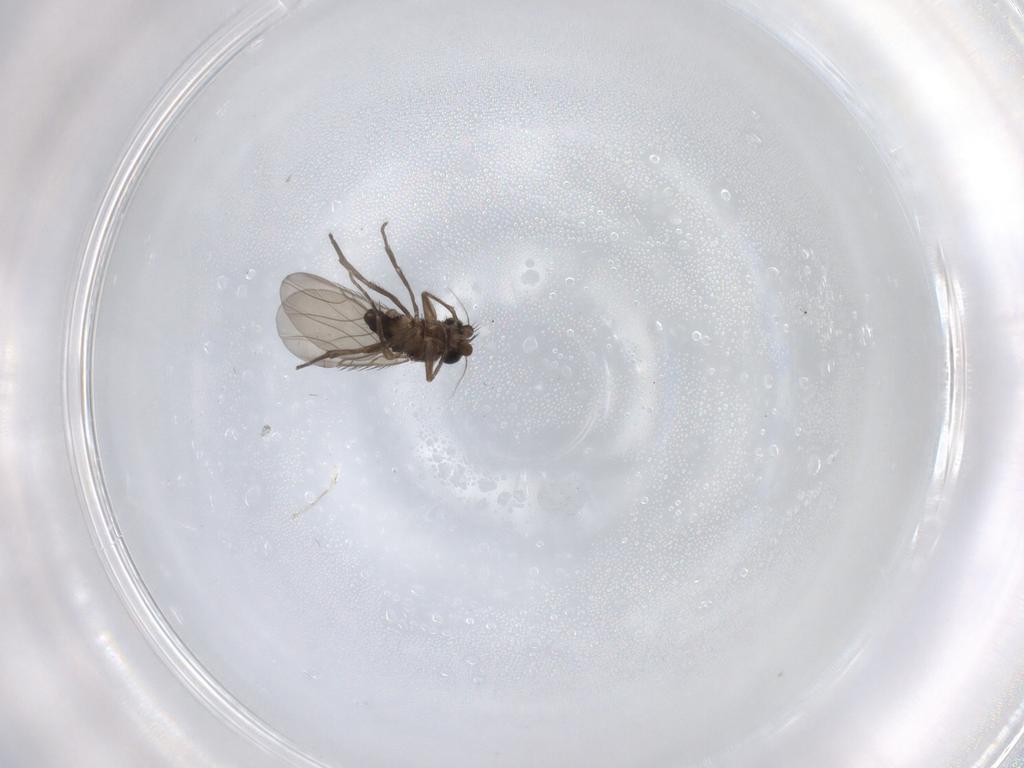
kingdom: Animalia
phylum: Arthropoda
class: Insecta
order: Diptera
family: Phoridae
